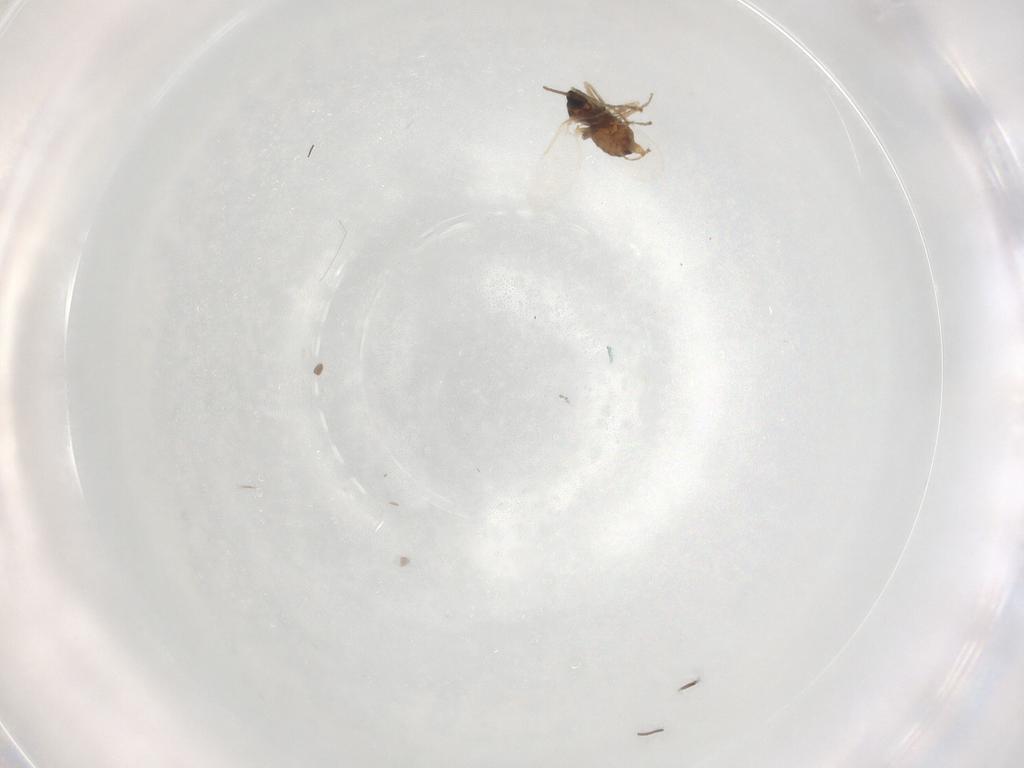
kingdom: Animalia
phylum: Arthropoda
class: Insecta
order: Diptera
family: Cecidomyiidae
